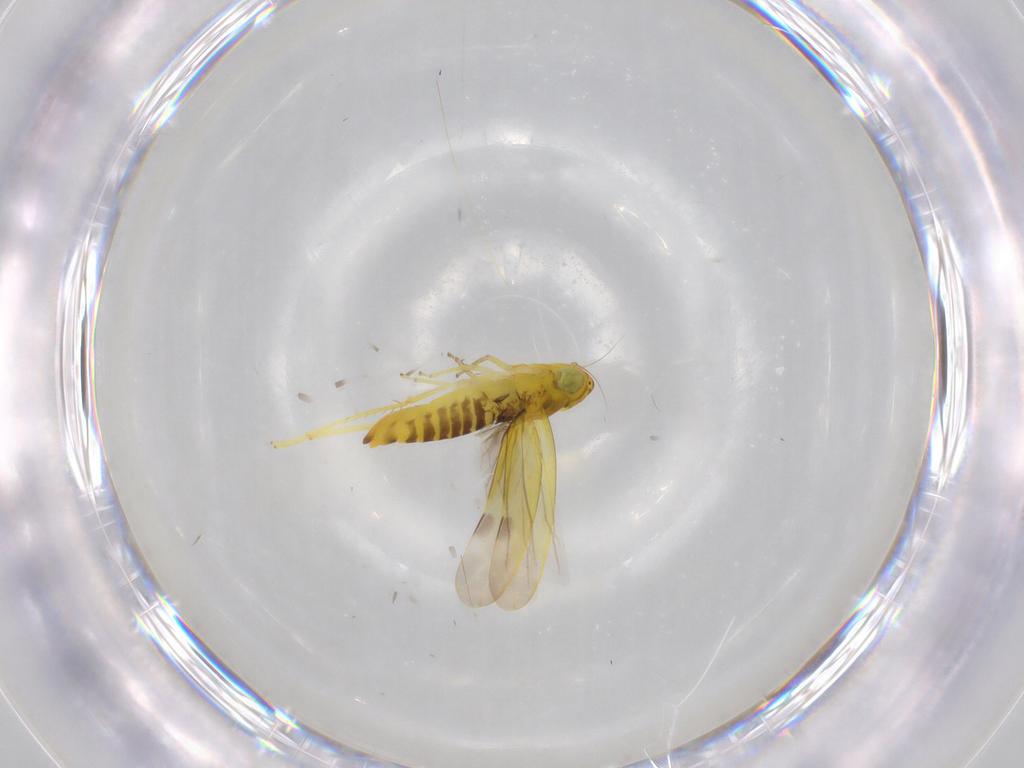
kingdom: Animalia
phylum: Arthropoda
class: Insecta
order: Hemiptera
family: Cicadellidae
